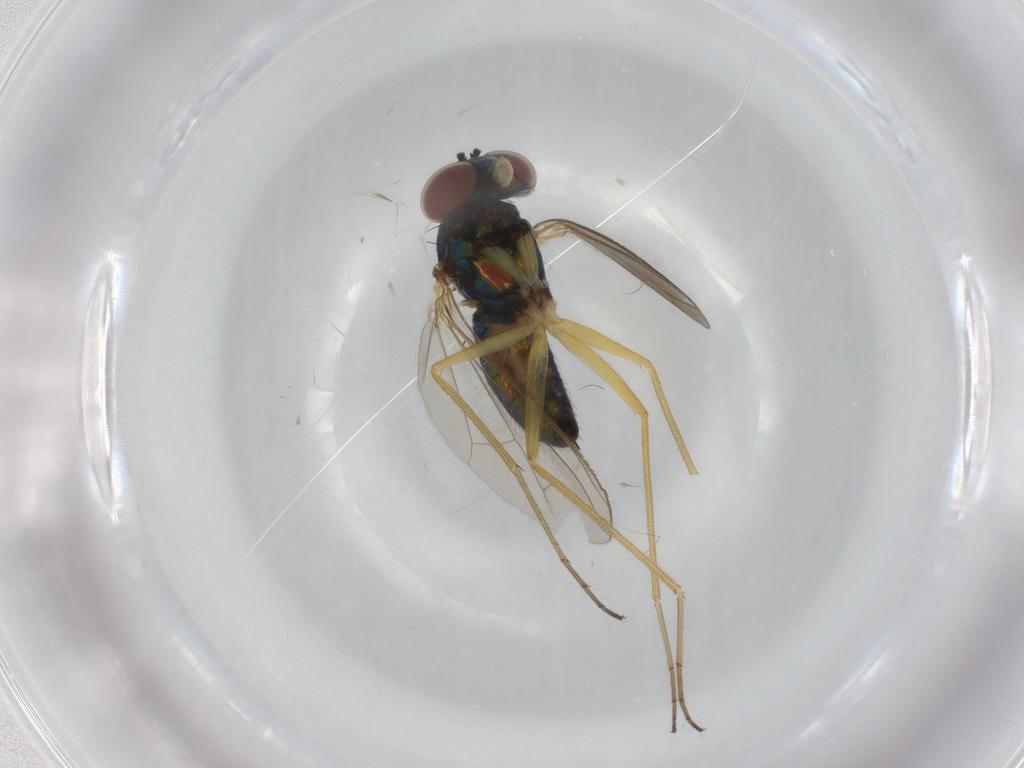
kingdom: Animalia
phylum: Arthropoda
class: Insecta
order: Diptera
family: Dolichopodidae
